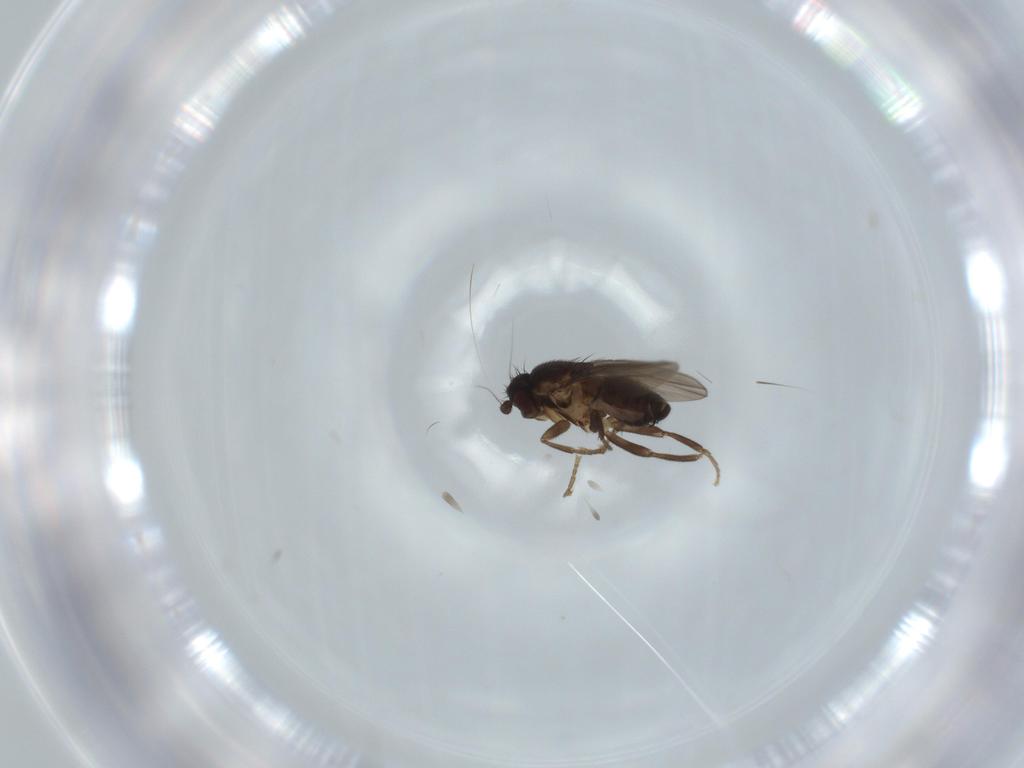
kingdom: Animalia
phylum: Arthropoda
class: Insecta
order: Diptera
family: Sphaeroceridae
